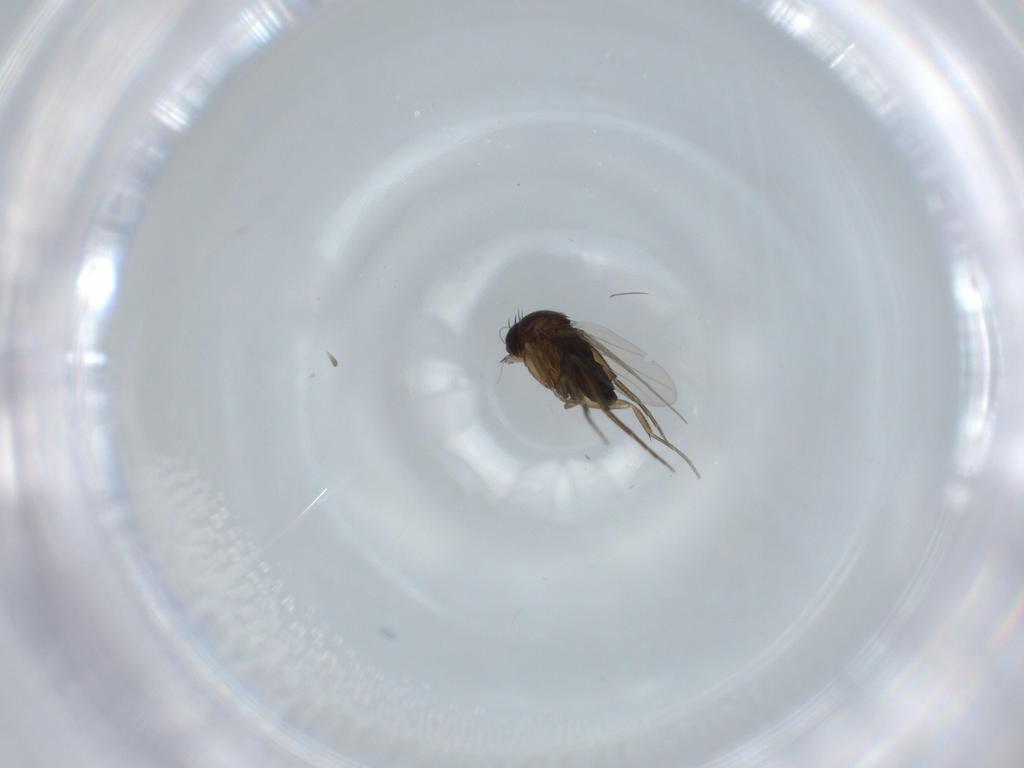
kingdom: Animalia
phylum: Arthropoda
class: Insecta
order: Diptera
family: Phoridae
